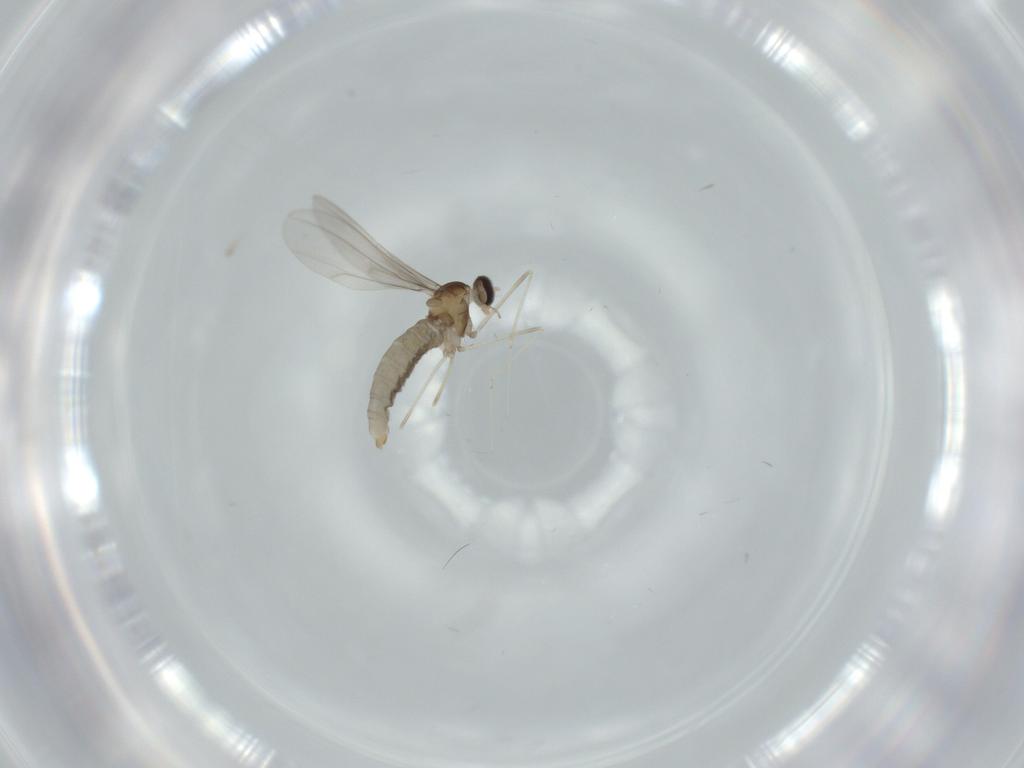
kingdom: Animalia
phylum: Arthropoda
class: Insecta
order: Diptera
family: Cecidomyiidae
